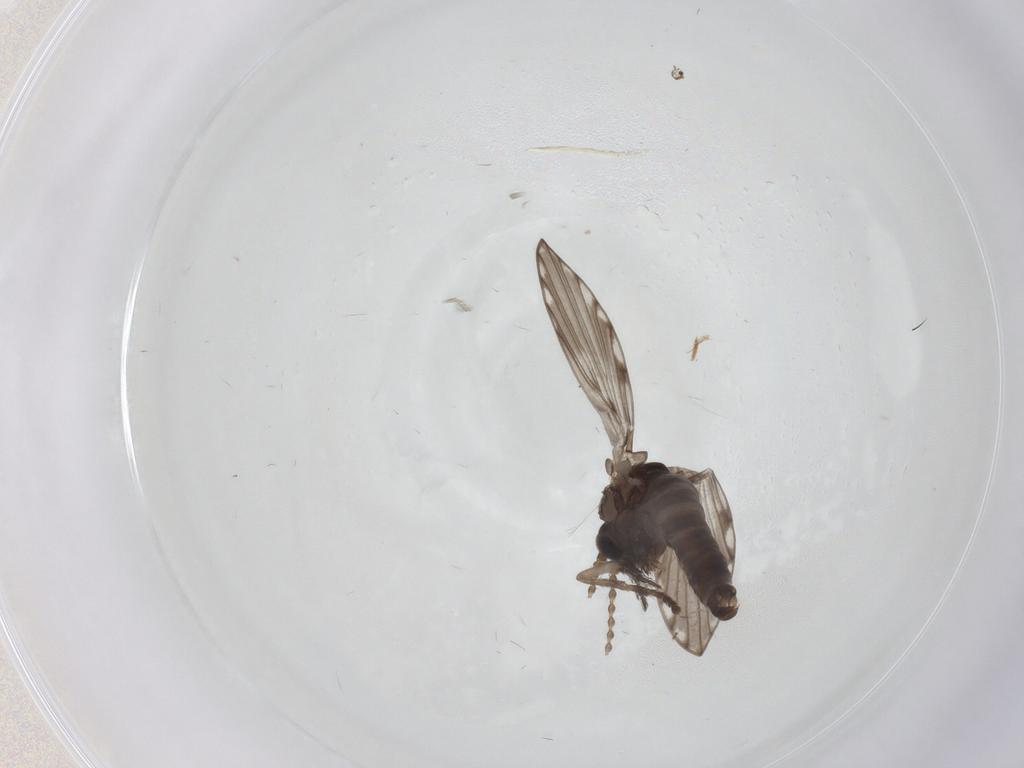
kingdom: Animalia
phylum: Arthropoda
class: Insecta
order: Diptera
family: Psychodidae
